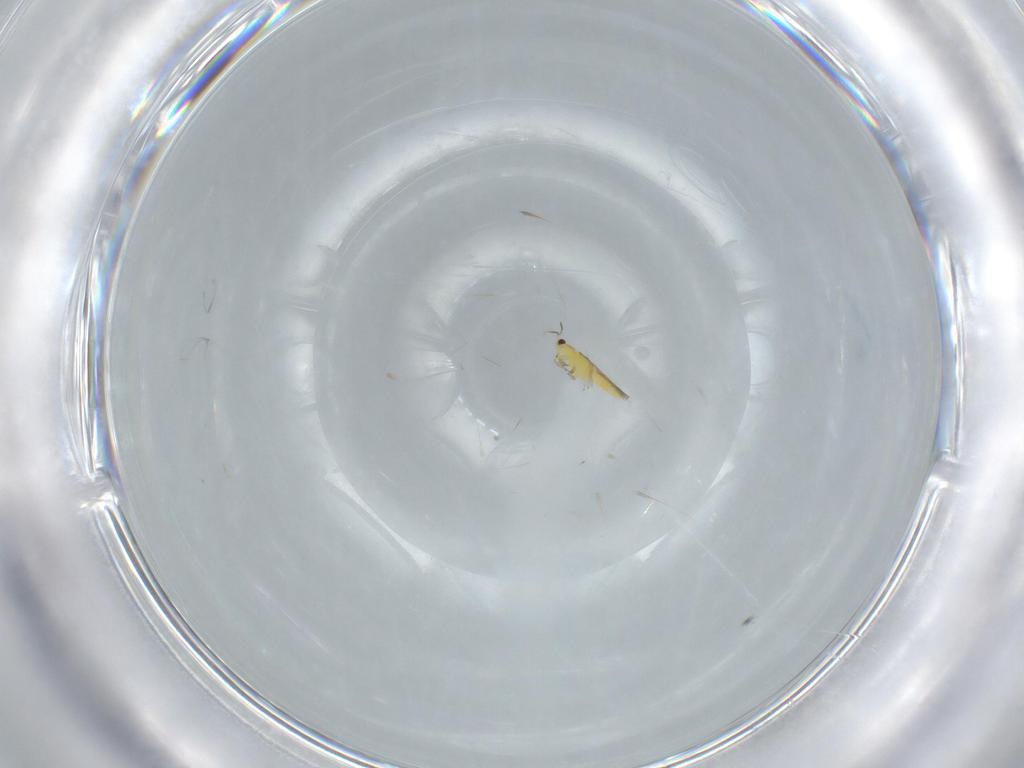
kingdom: Animalia
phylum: Arthropoda
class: Insecta
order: Thysanoptera
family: Thripidae
